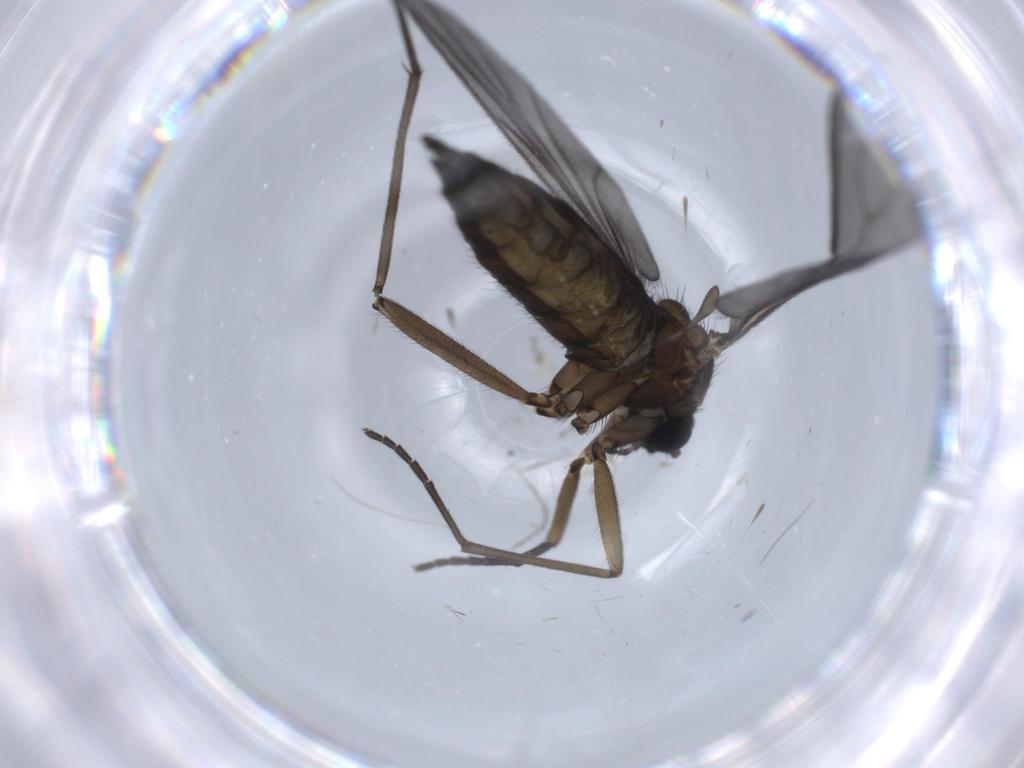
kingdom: Animalia
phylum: Arthropoda
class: Insecta
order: Diptera
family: Sciaridae
